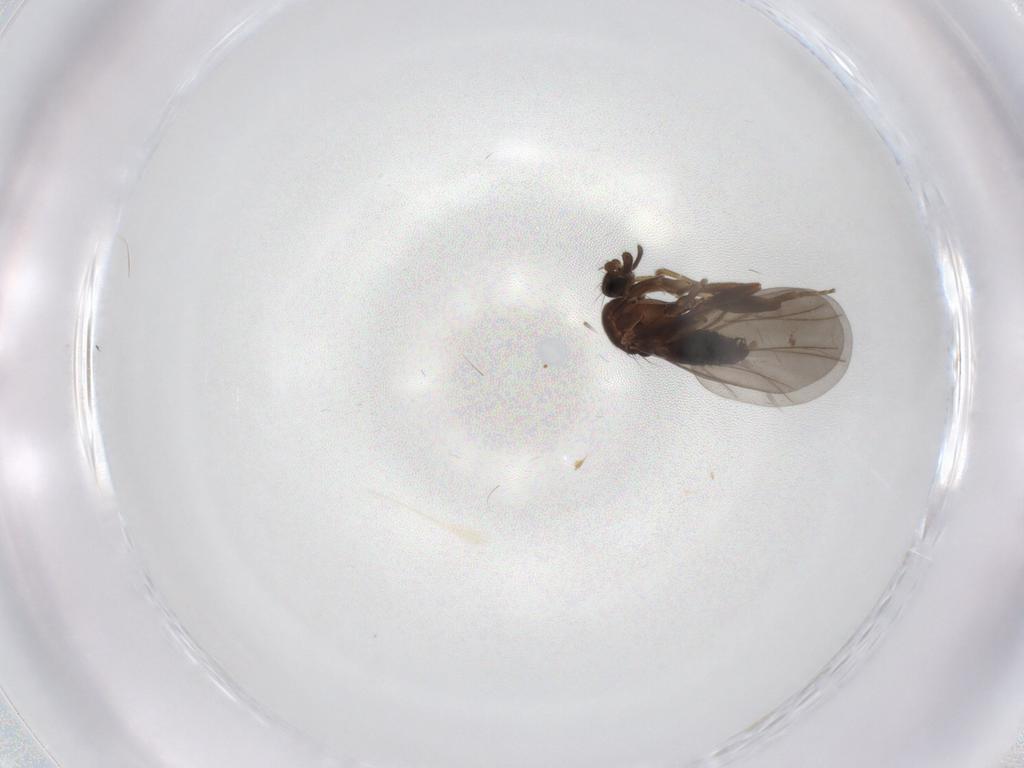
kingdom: Animalia
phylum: Arthropoda
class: Insecta
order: Diptera
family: Phoridae
